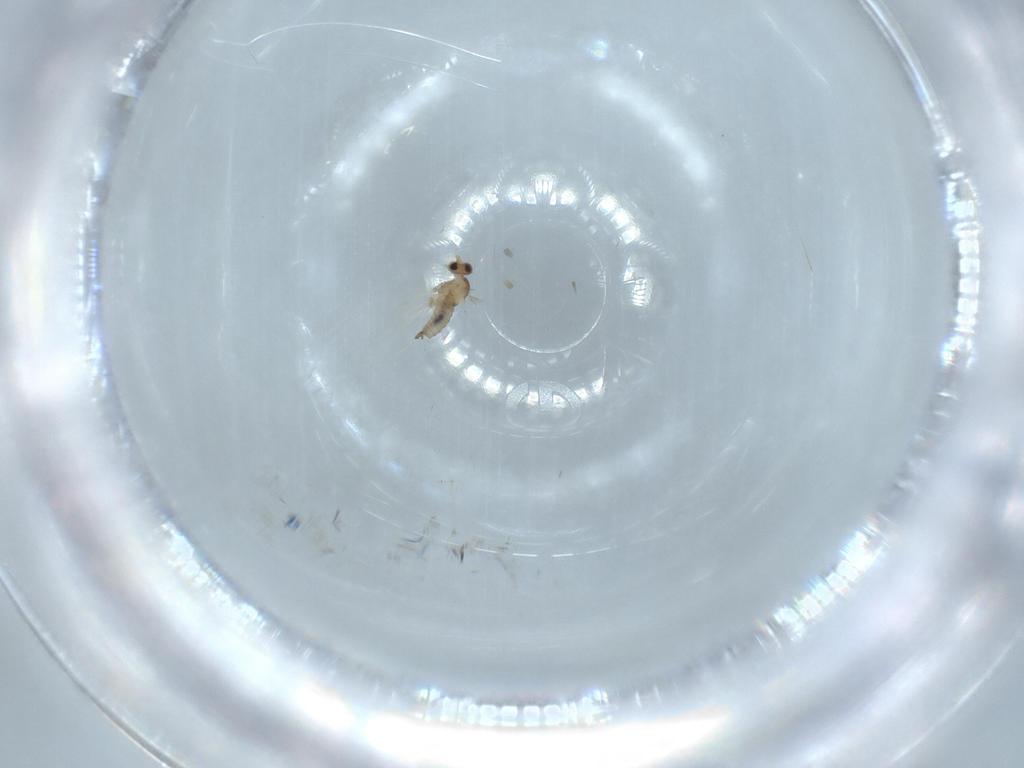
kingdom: Animalia
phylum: Arthropoda
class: Insecta
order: Diptera
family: Cecidomyiidae
